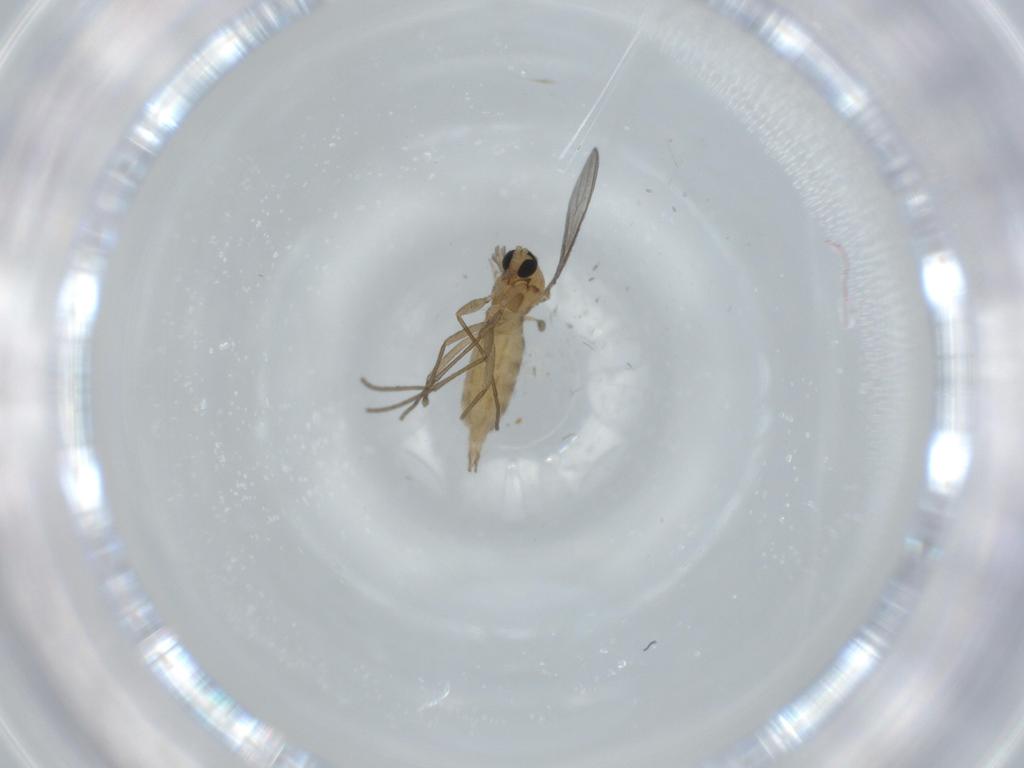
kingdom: Animalia
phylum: Arthropoda
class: Insecta
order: Diptera
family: Sciaridae
